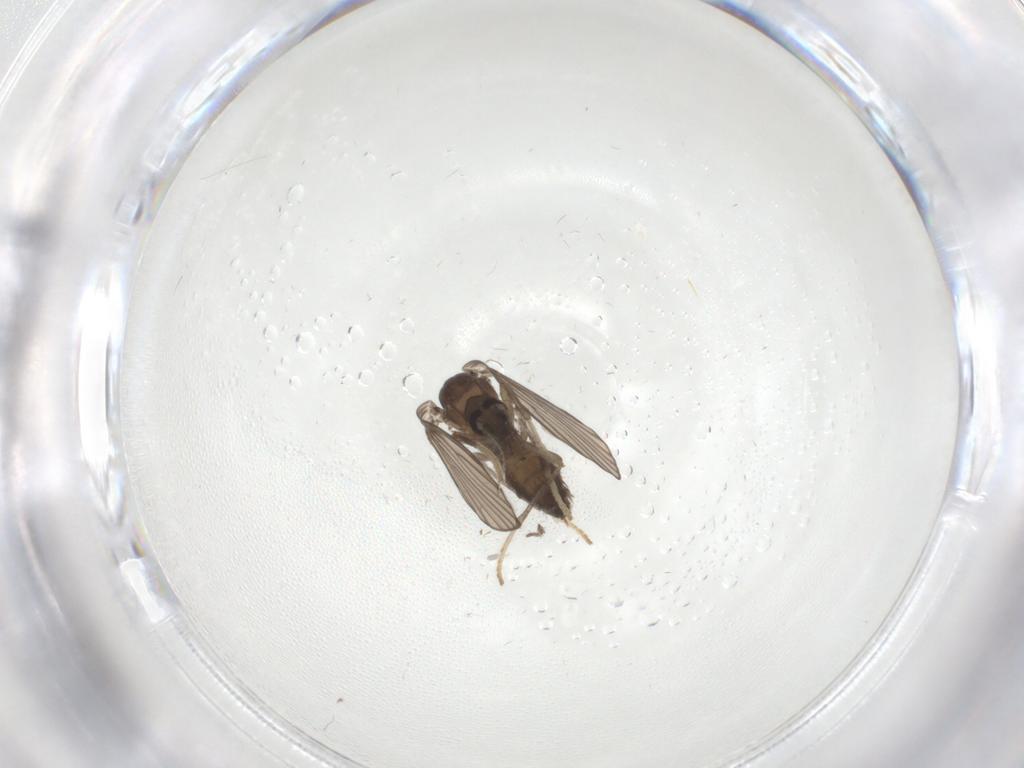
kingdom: Animalia
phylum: Arthropoda
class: Insecta
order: Diptera
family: Psychodidae
